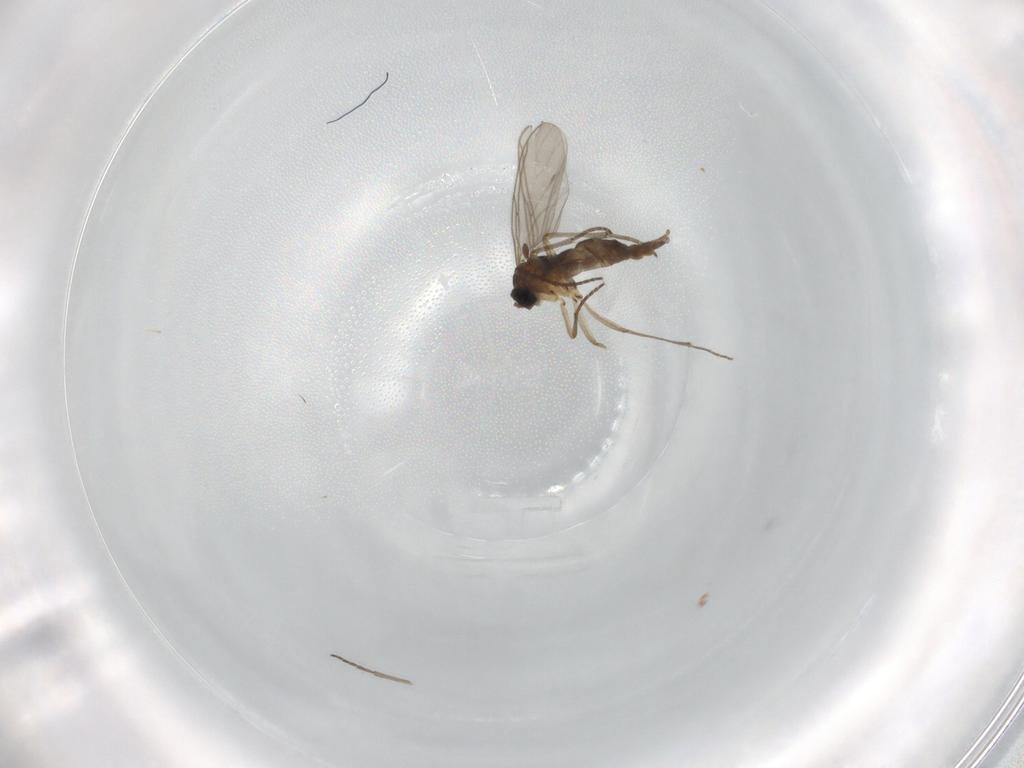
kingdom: Animalia
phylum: Arthropoda
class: Insecta
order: Diptera
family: Sciaridae
